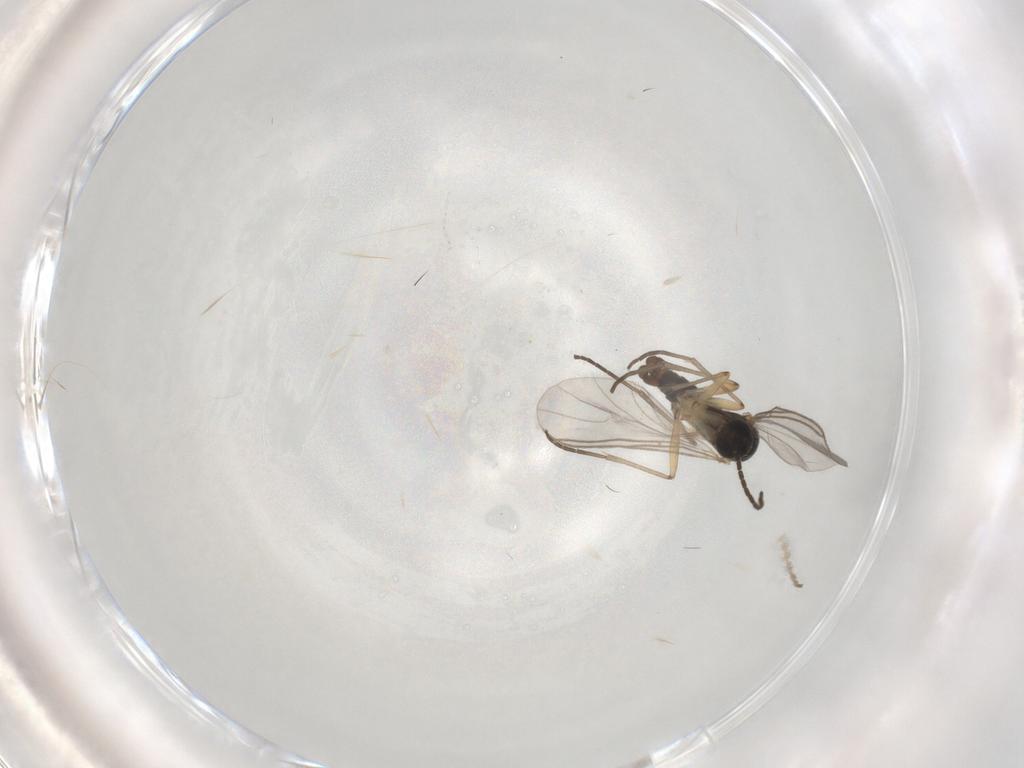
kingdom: Animalia
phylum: Arthropoda
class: Insecta
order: Diptera
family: Sciaridae
